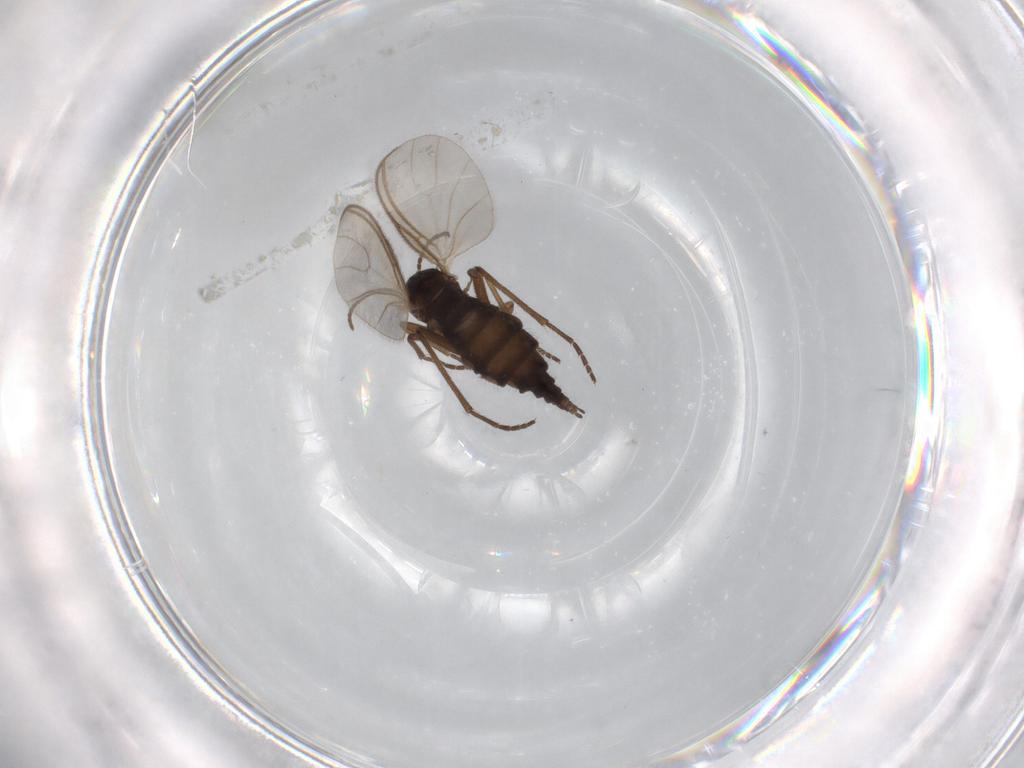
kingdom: Animalia
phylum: Arthropoda
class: Insecta
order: Diptera
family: Sciaridae
